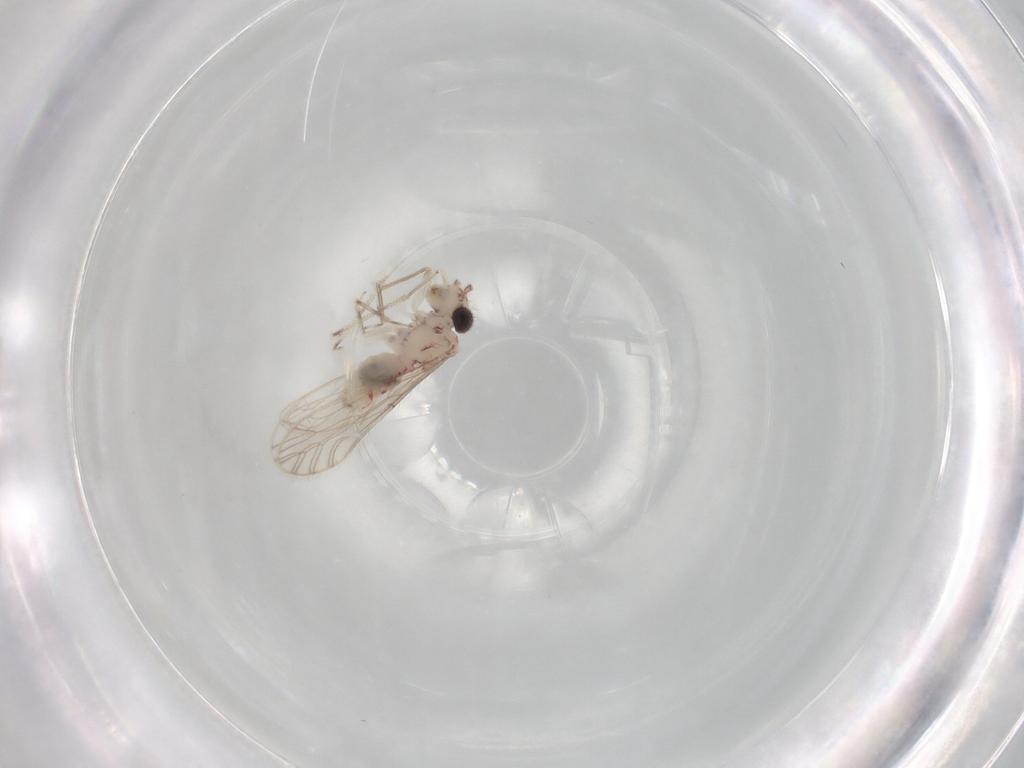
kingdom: Animalia
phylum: Arthropoda
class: Insecta
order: Psocodea
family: Caeciliusidae
